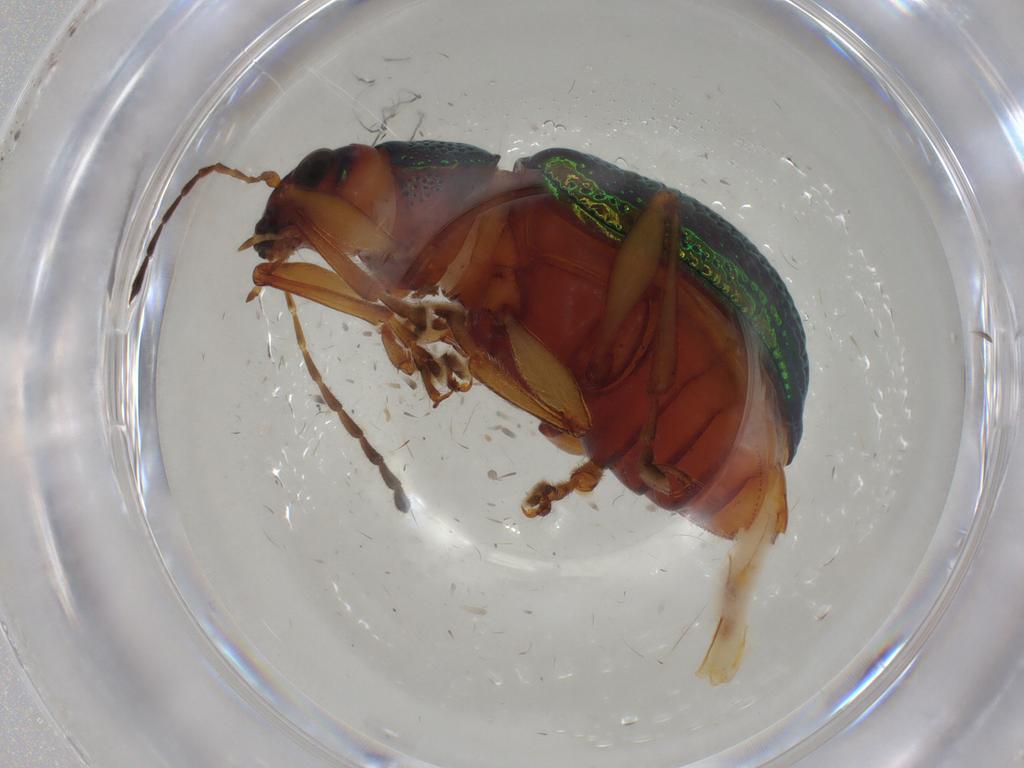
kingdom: Animalia
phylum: Arthropoda
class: Insecta
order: Coleoptera
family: Chrysomelidae
